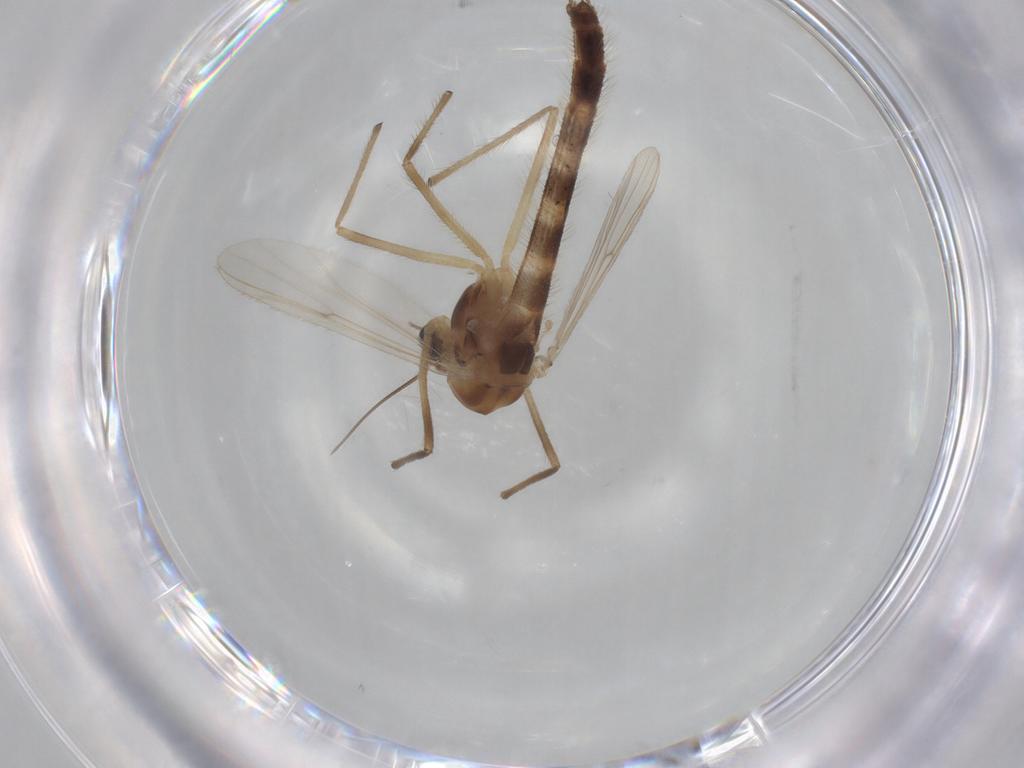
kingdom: Animalia
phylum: Arthropoda
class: Insecta
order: Diptera
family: Chironomidae
